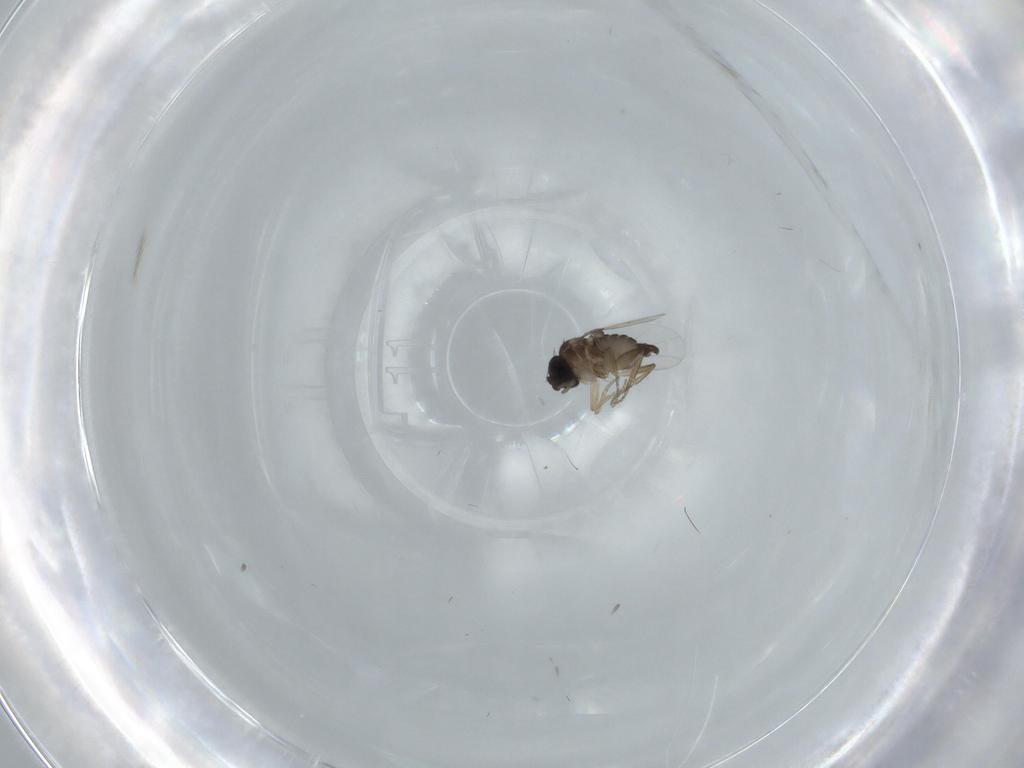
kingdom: Animalia
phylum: Arthropoda
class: Insecta
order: Diptera
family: Phoridae
